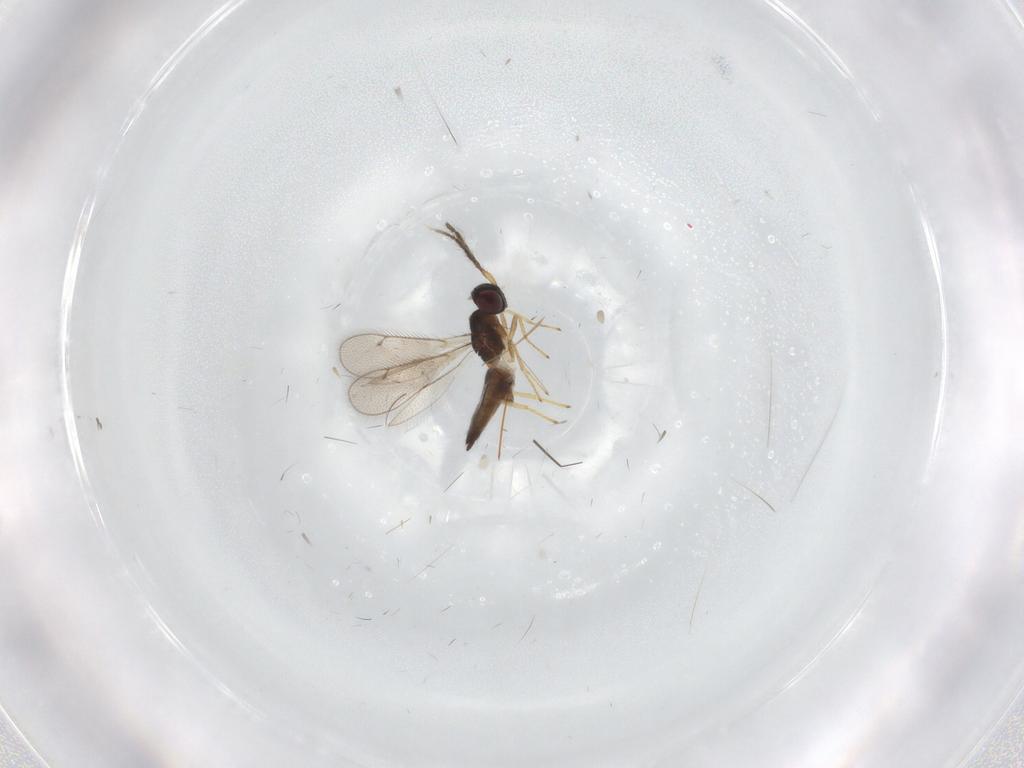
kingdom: Animalia
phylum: Arthropoda
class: Insecta
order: Hymenoptera
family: Eulophidae
